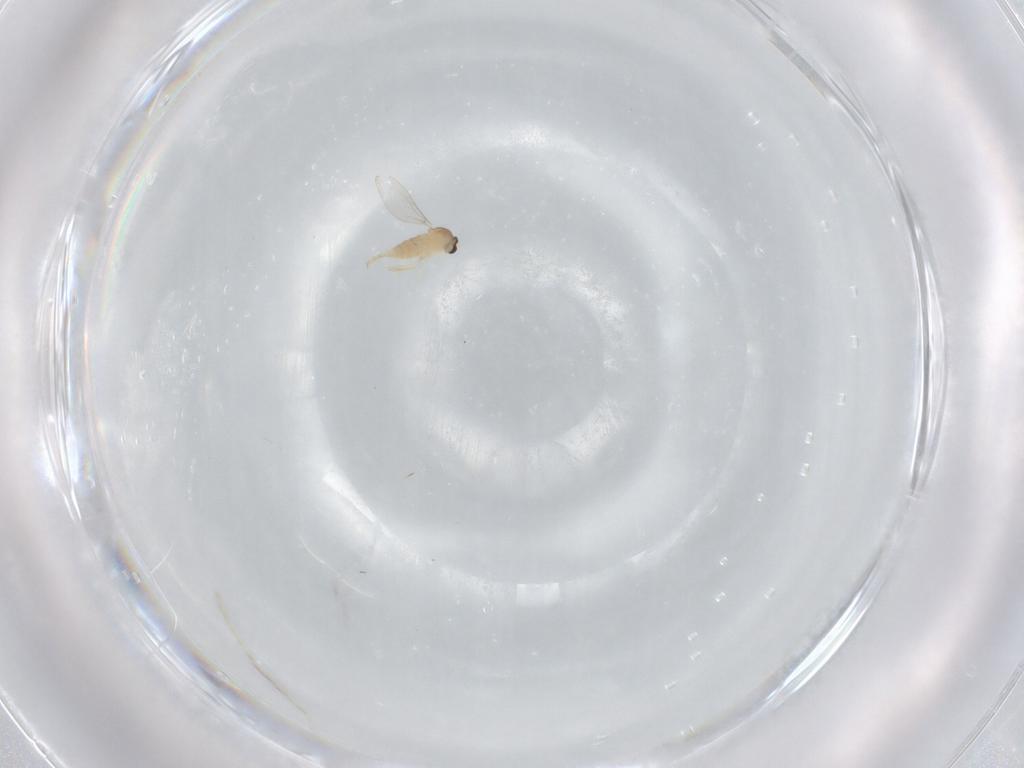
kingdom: Animalia
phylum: Arthropoda
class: Insecta
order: Diptera
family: Cecidomyiidae
